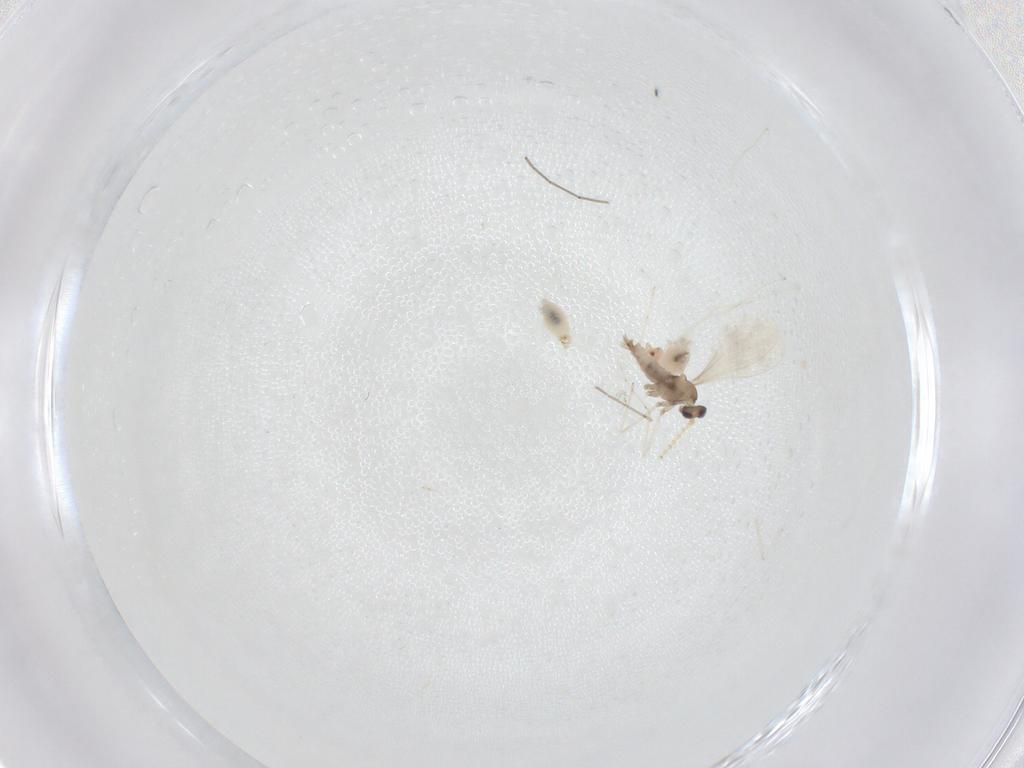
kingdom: Animalia
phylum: Arthropoda
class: Insecta
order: Diptera
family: Cecidomyiidae
